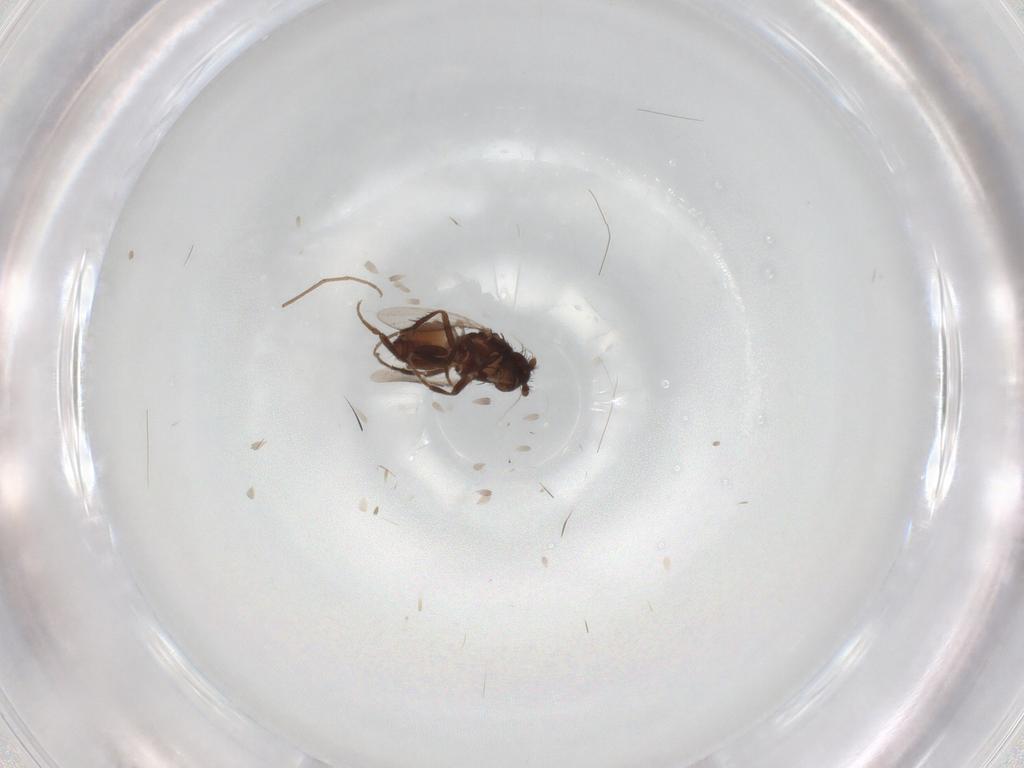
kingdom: Animalia
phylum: Arthropoda
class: Insecta
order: Diptera
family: Sphaeroceridae
